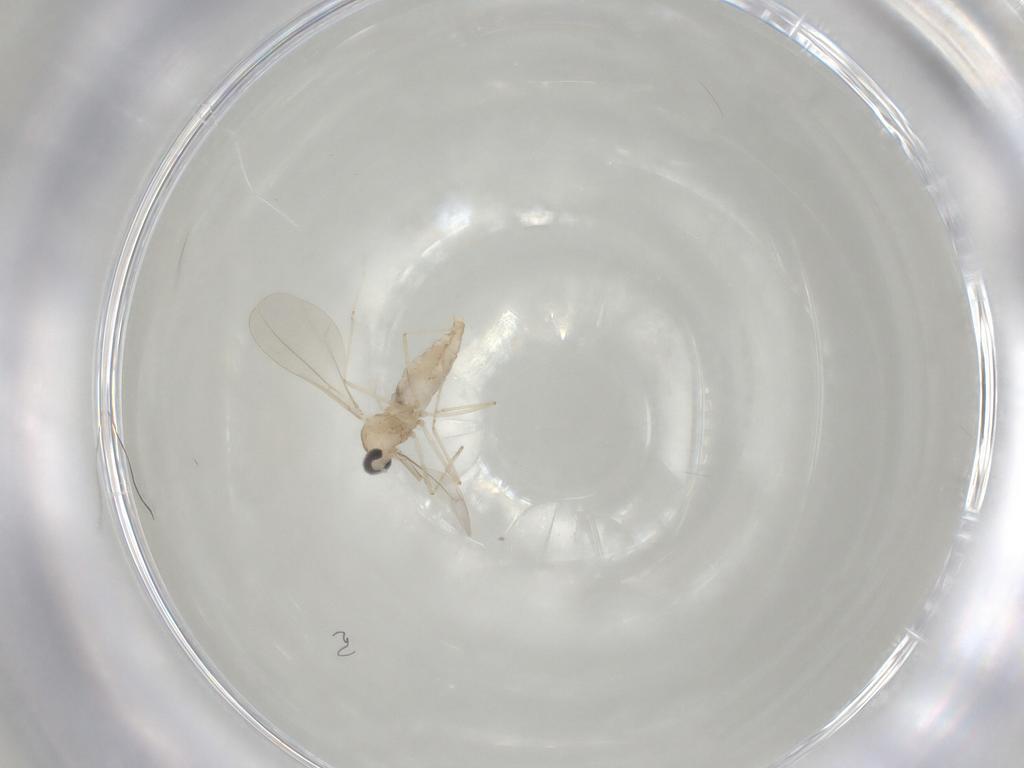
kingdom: Animalia
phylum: Arthropoda
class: Insecta
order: Diptera
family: Cecidomyiidae
